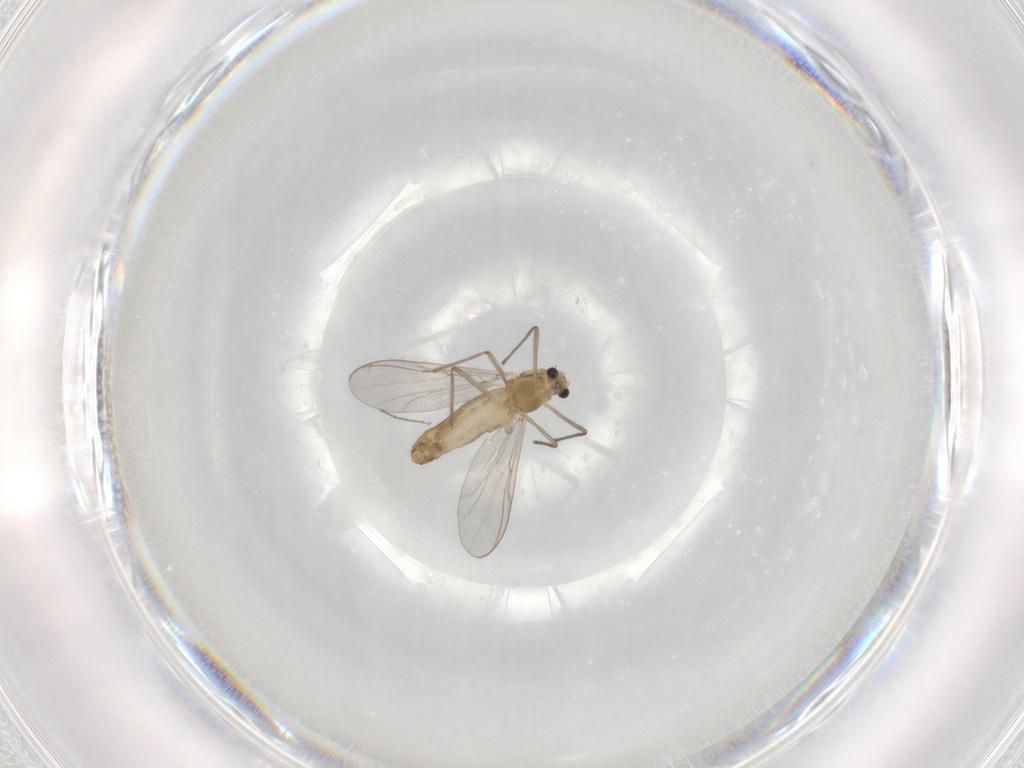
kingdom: Animalia
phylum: Arthropoda
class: Insecta
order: Diptera
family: Chironomidae
